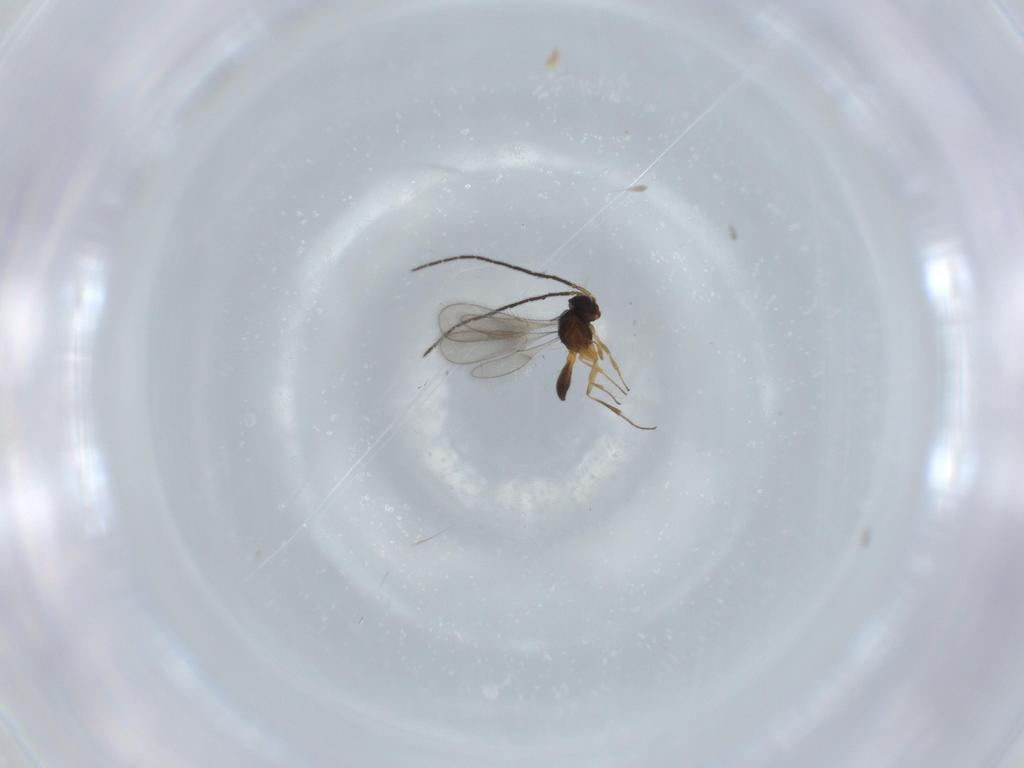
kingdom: Animalia
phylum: Arthropoda
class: Insecta
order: Hymenoptera
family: Scelionidae
